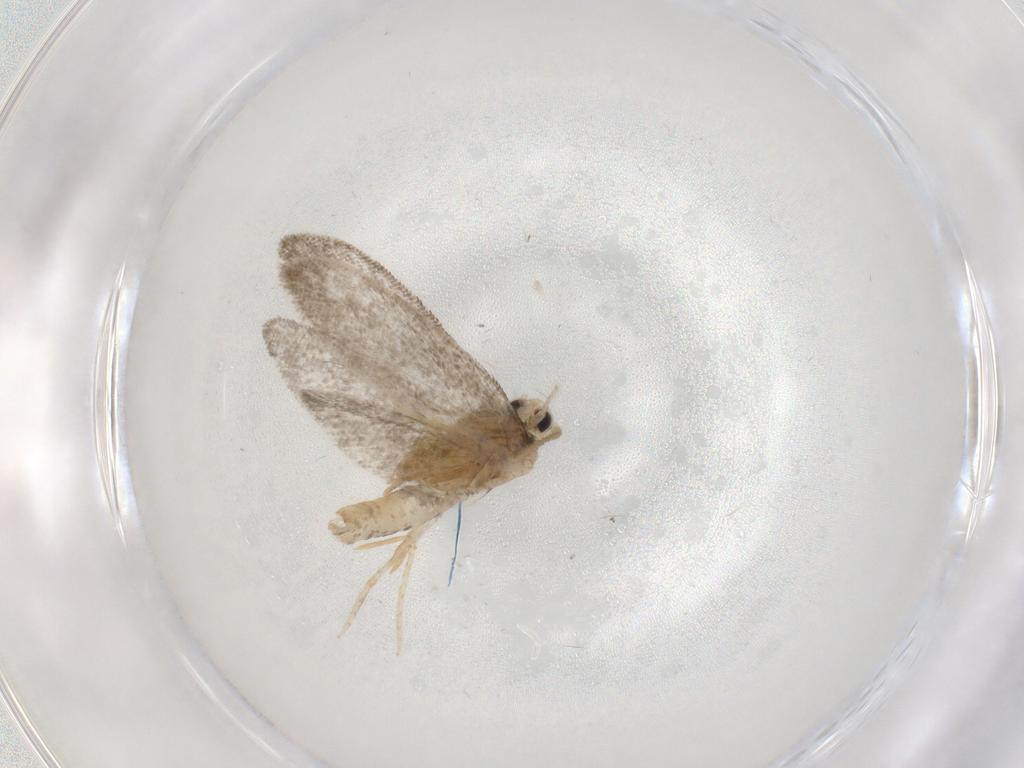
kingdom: Animalia
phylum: Arthropoda
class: Insecta
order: Lepidoptera
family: Psychidae
